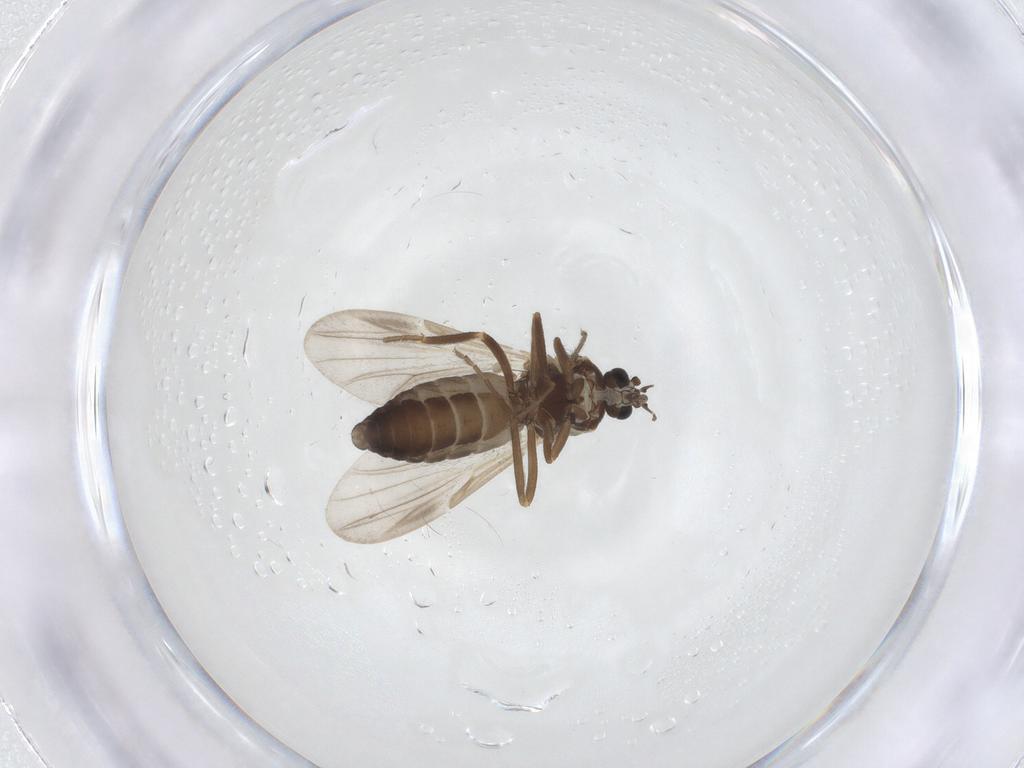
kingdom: Animalia
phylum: Arthropoda
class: Insecta
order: Diptera
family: Ceratopogonidae
